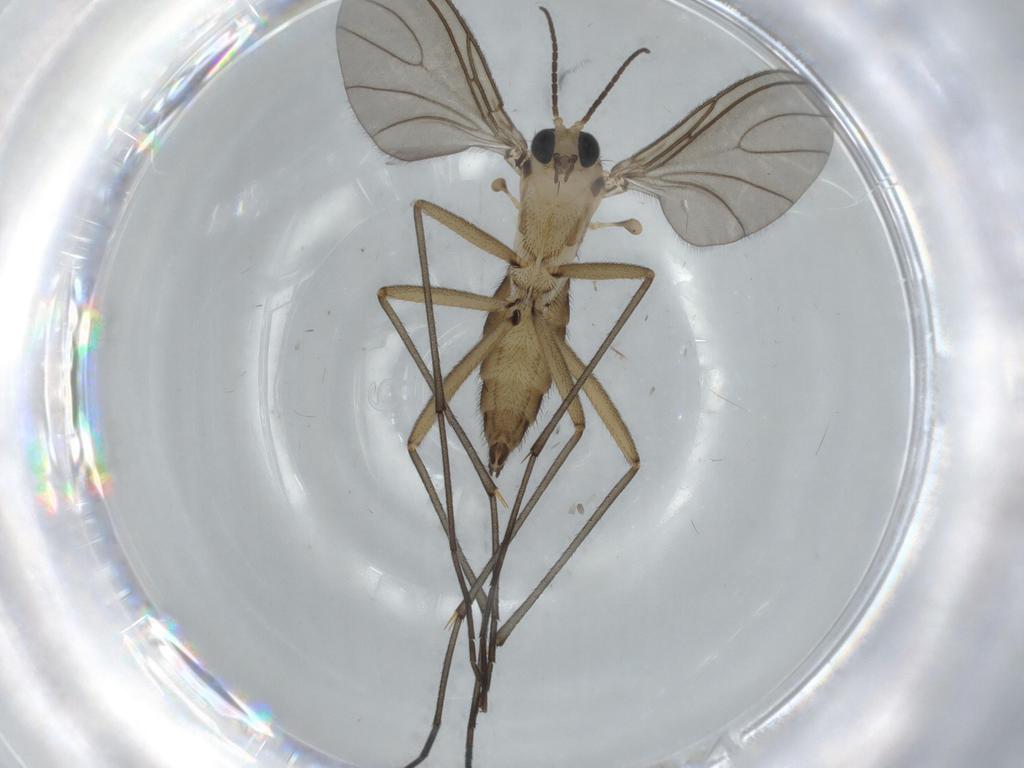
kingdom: Animalia
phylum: Arthropoda
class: Insecta
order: Diptera
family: Sciaridae
